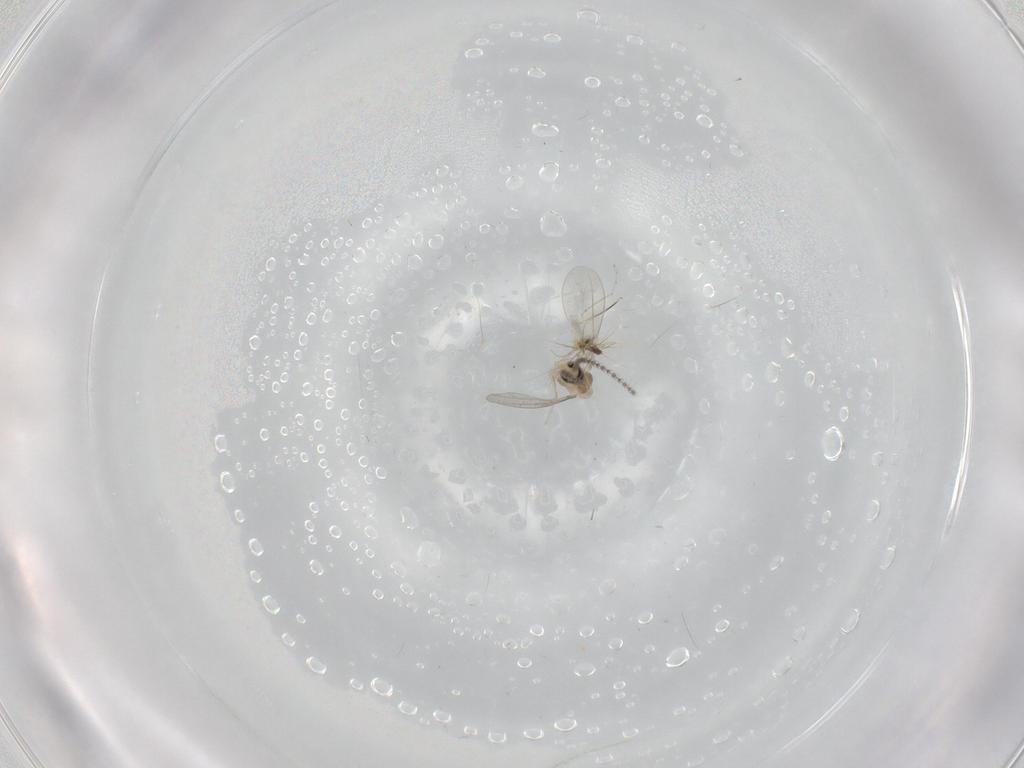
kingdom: Animalia
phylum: Arthropoda
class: Insecta
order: Diptera
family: Cecidomyiidae
